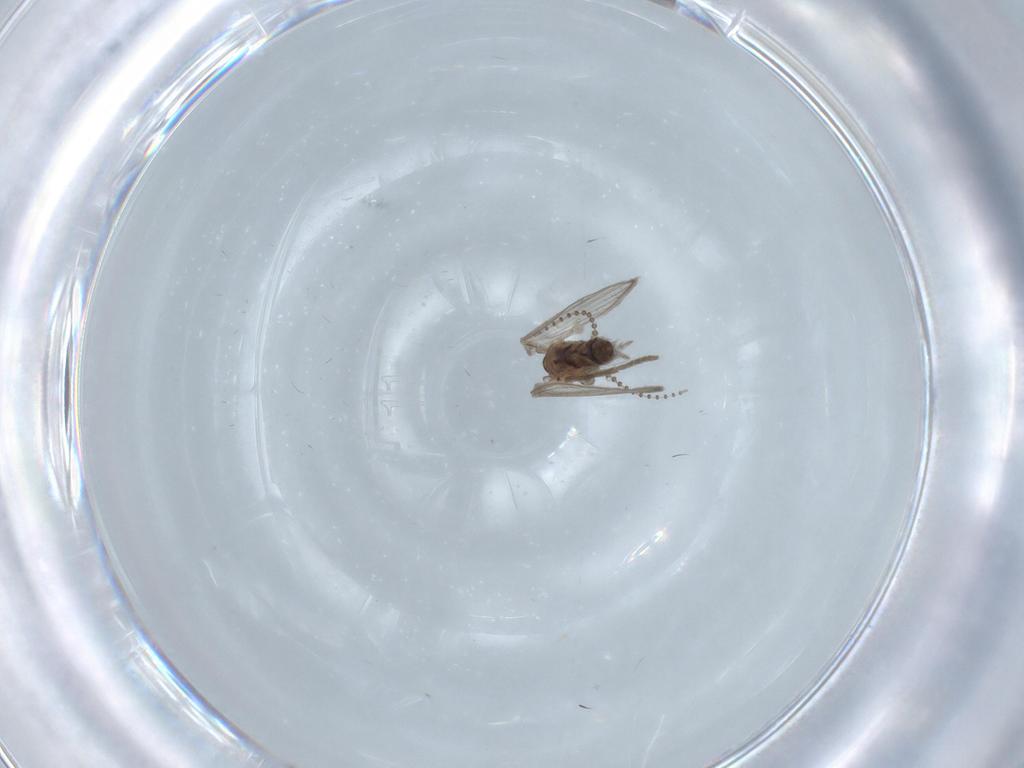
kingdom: Animalia
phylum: Arthropoda
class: Insecta
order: Diptera
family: Psychodidae
